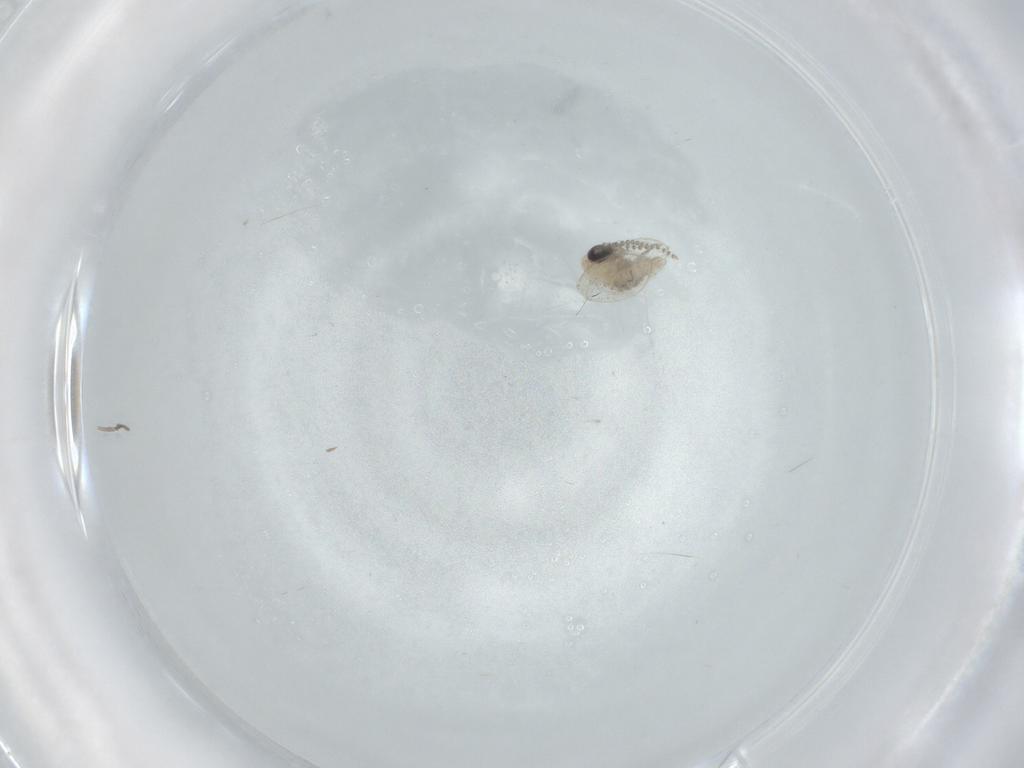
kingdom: Animalia
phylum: Arthropoda
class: Insecta
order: Diptera
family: Psychodidae
